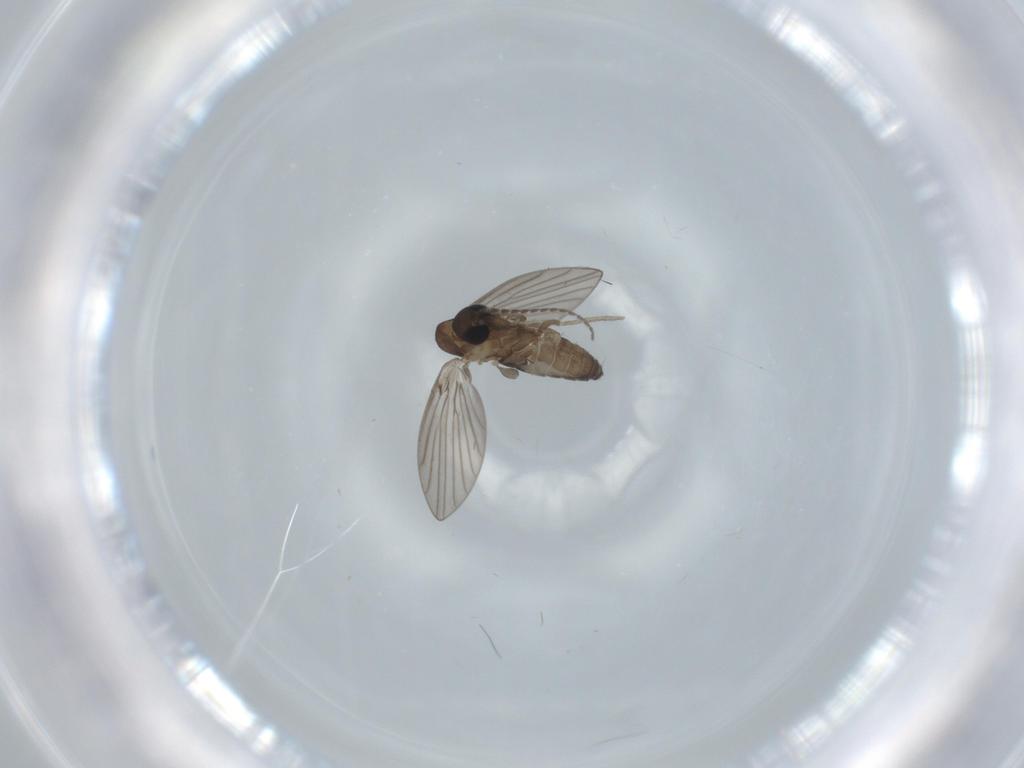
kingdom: Animalia
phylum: Arthropoda
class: Insecta
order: Diptera
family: Psychodidae
